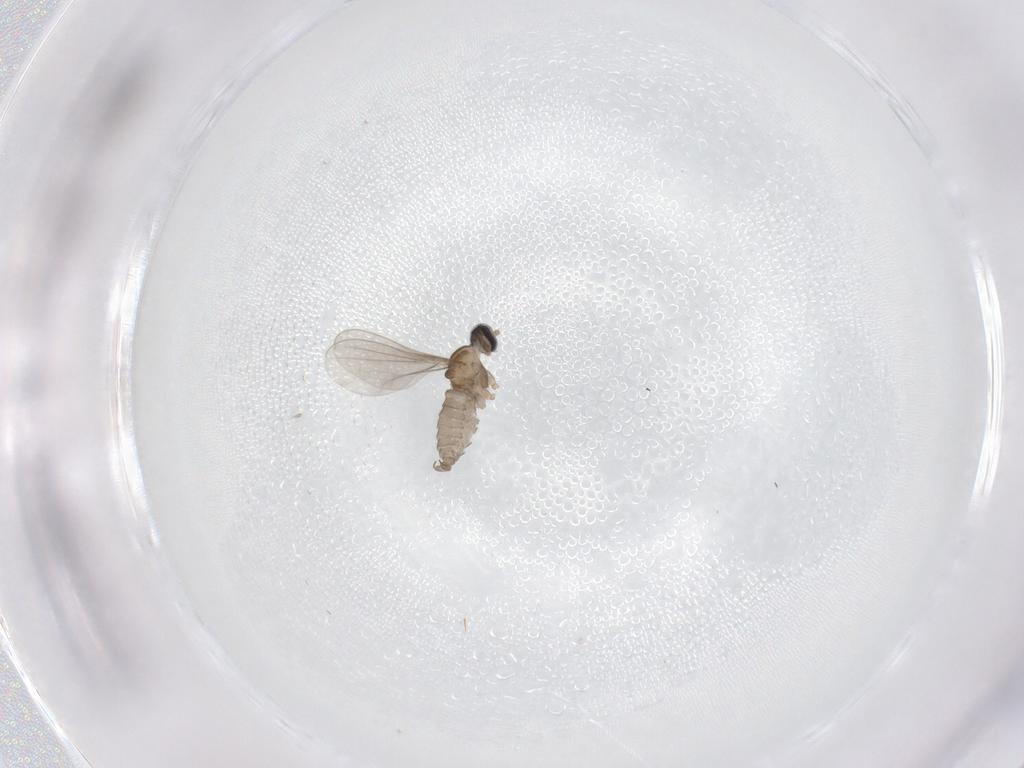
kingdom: Animalia
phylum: Arthropoda
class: Insecta
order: Diptera
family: Cecidomyiidae
